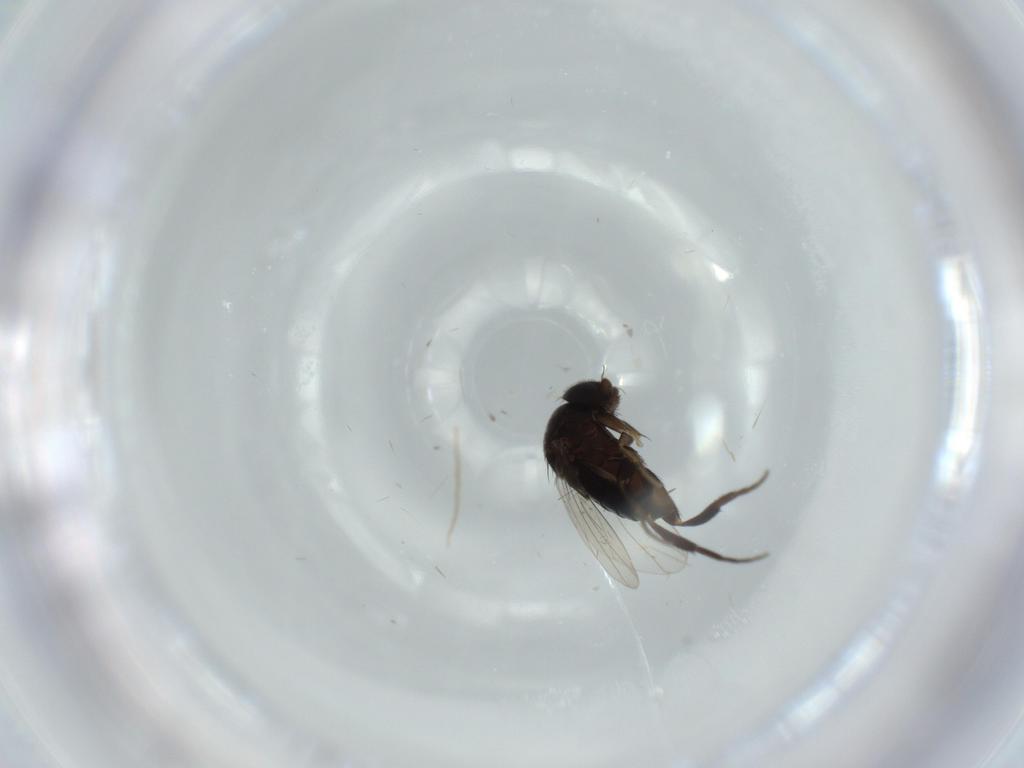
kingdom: Animalia
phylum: Arthropoda
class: Insecta
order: Diptera
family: Phoridae
